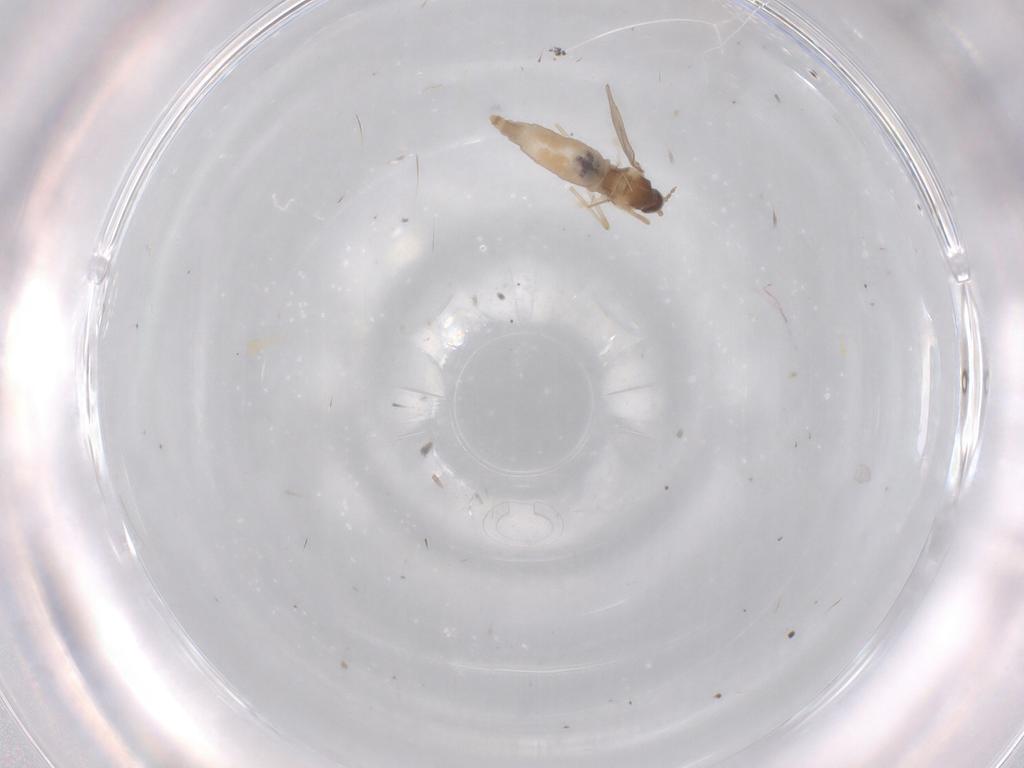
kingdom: Animalia
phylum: Arthropoda
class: Insecta
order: Diptera
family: Cecidomyiidae
